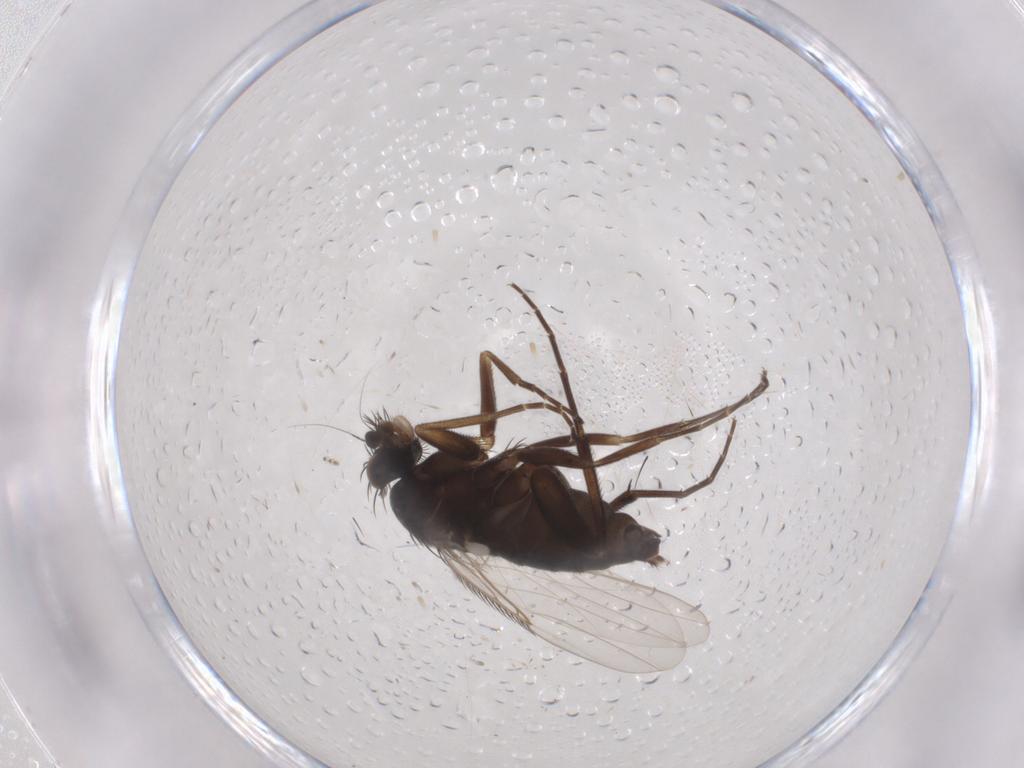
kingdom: Animalia
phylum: Arthropoda
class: Insecta
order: Diptera
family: Phoridae
